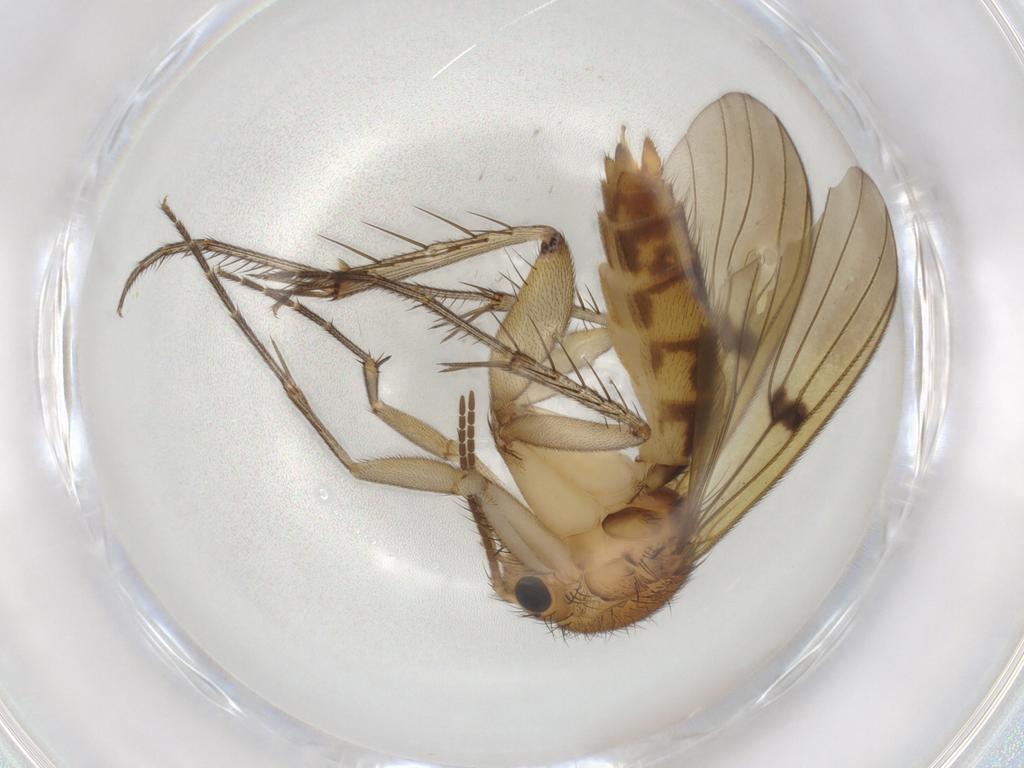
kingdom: Animalia
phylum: Arthropoda
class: Insecta
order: Diptera
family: Mycetophilidae
